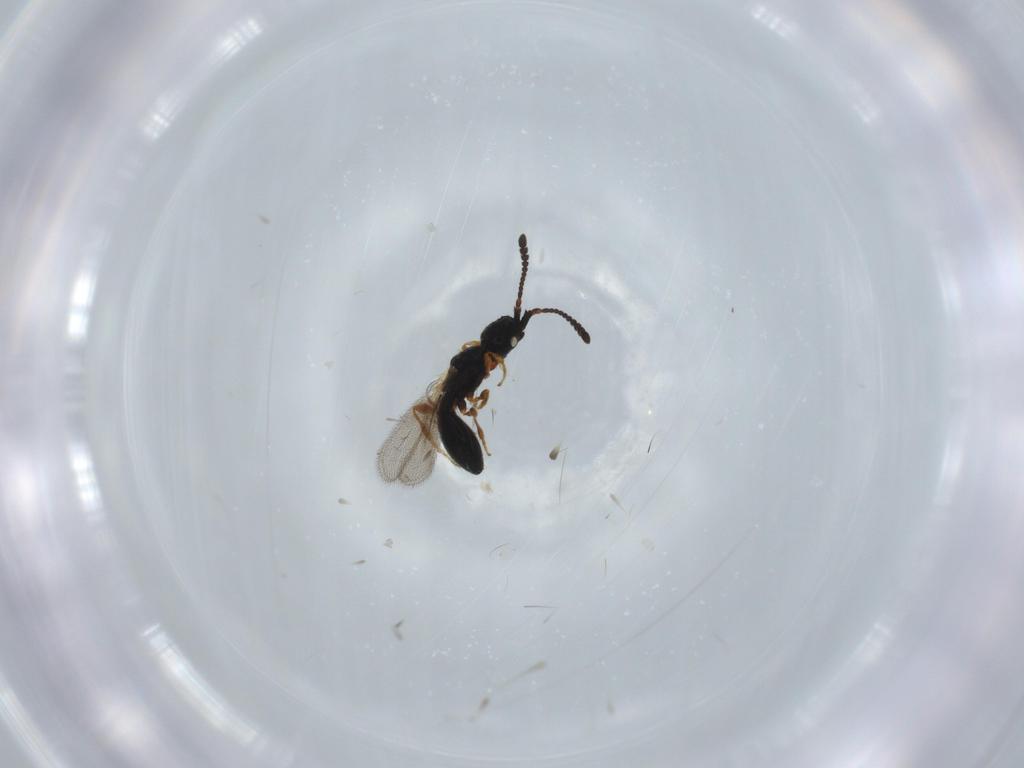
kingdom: Animalia
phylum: Arthropoda
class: Insecta
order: Hymenoptera
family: Diapriidae
